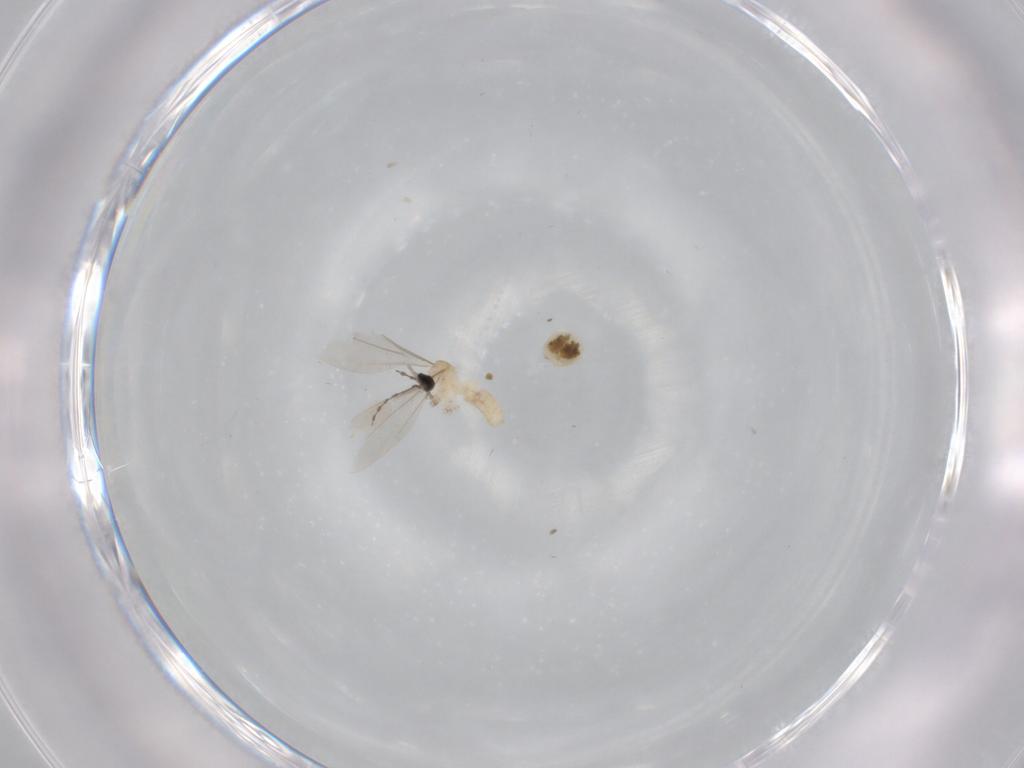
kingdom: Animalia
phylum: Arthropoda
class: Insecta
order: Diptera
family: Cecidomyiidae
